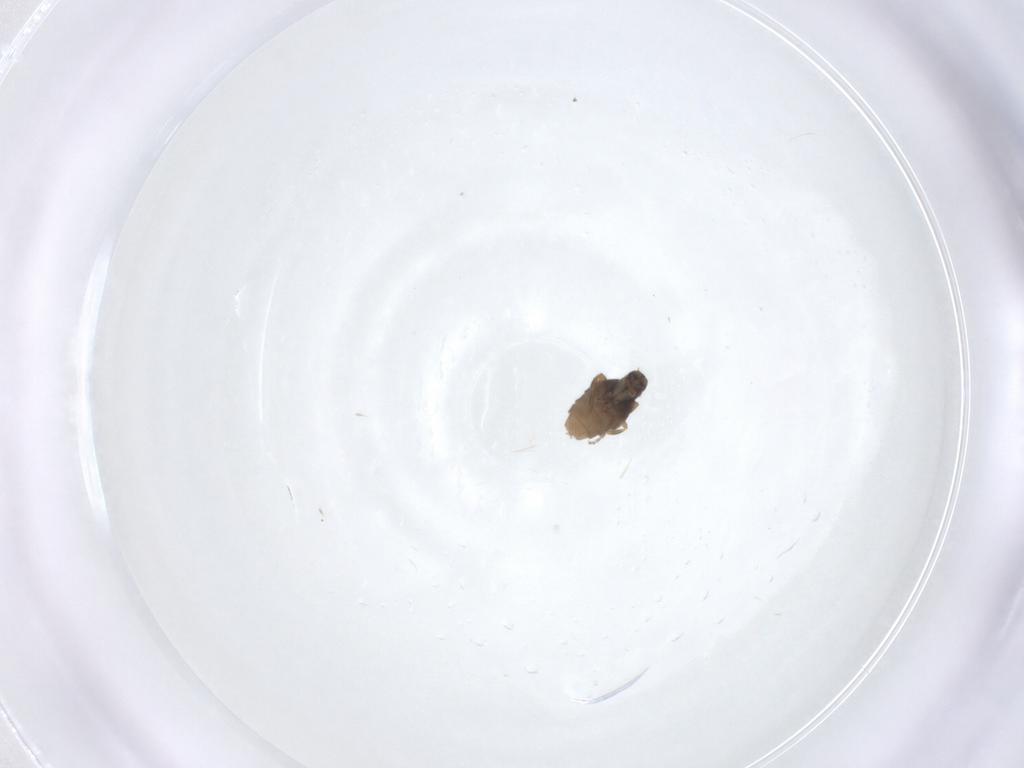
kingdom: Animalia
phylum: Arthropoda
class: Insecta
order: Diptera
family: Phoridae
